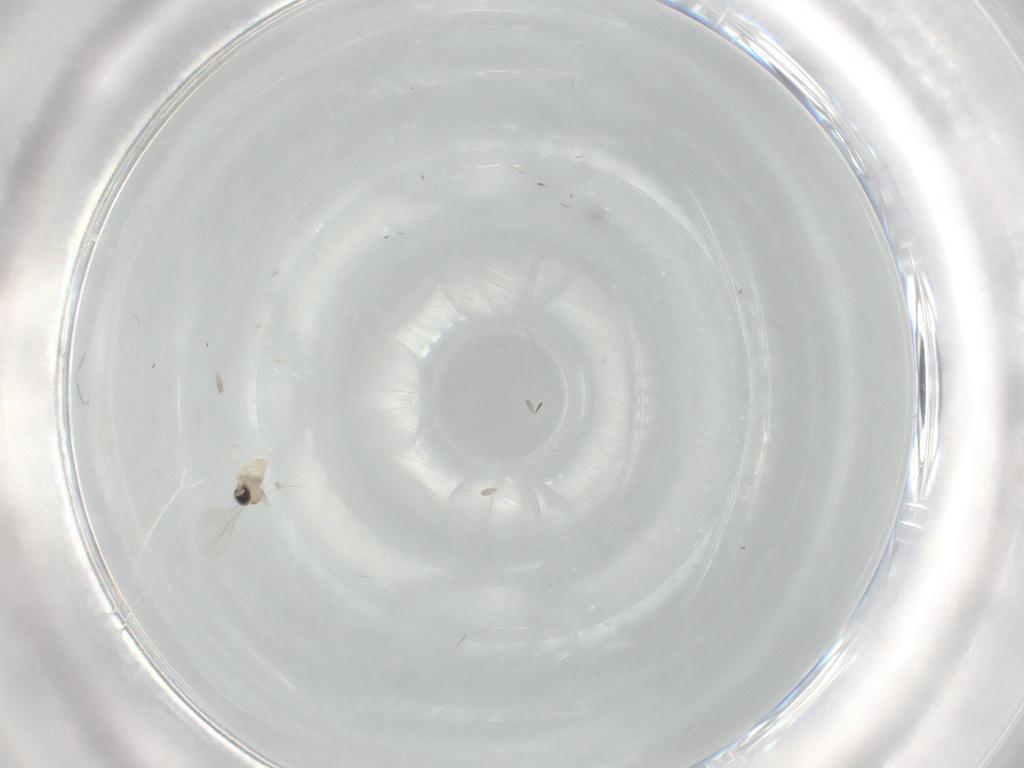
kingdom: Animalia
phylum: Arthropoda
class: Insecta
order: Diptera
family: Cecidomyiidae
